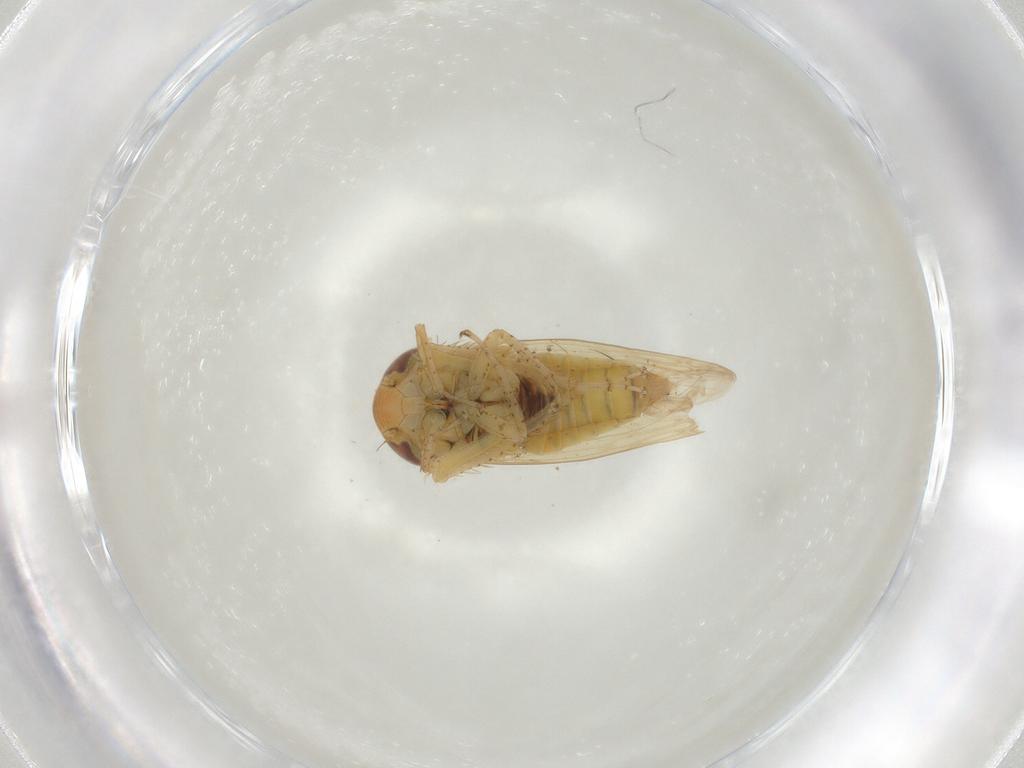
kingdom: Animalia
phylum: Arthropoda
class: Insecta
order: Hemiptera
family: Cicadellidae
